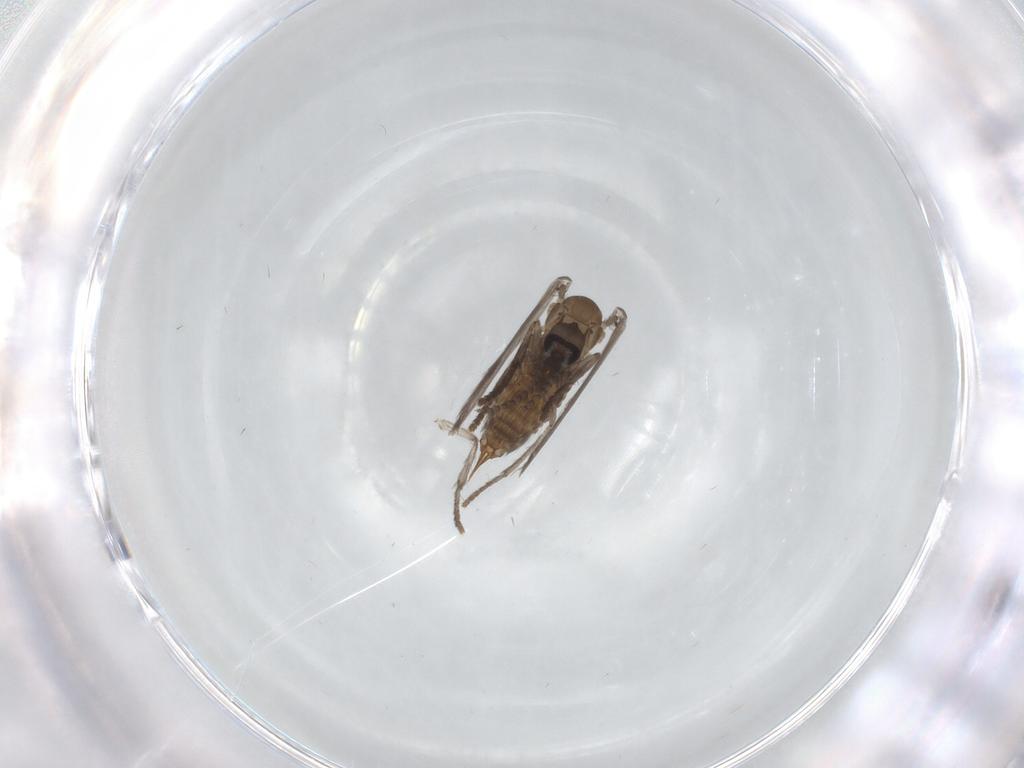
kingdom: Animalia
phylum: Arthropoda
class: Insecta
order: Diptera
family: Psychodidae
